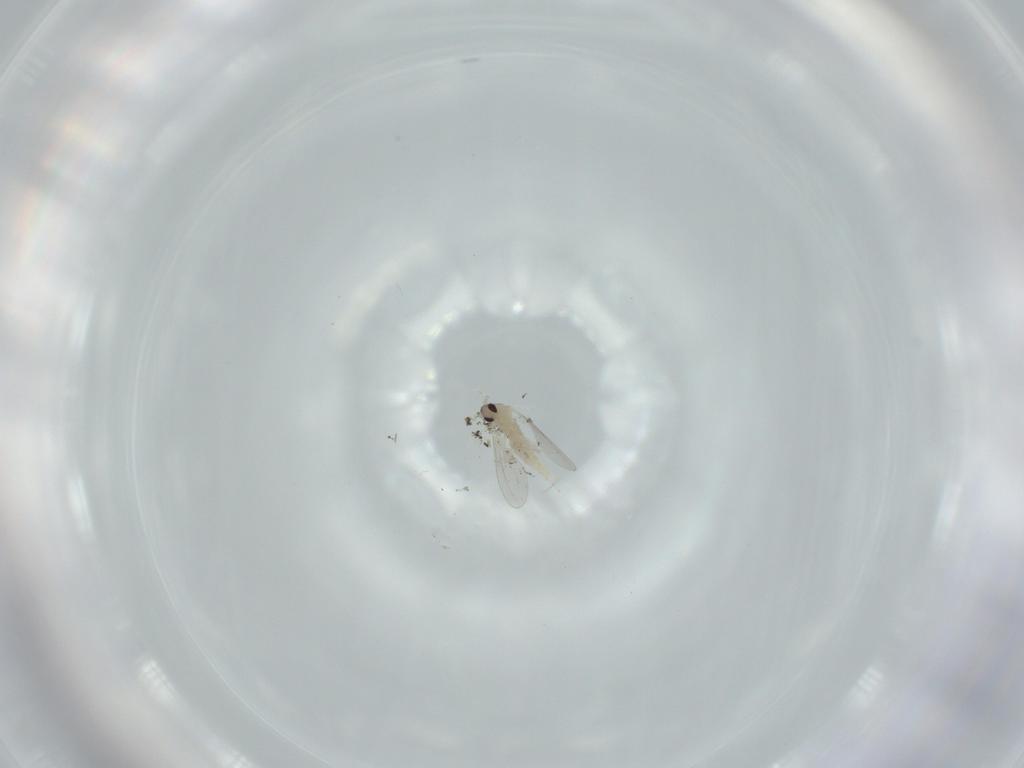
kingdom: Animalia
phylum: Arthropoda
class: Insecta
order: Diptera
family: Cecidomyiidae
